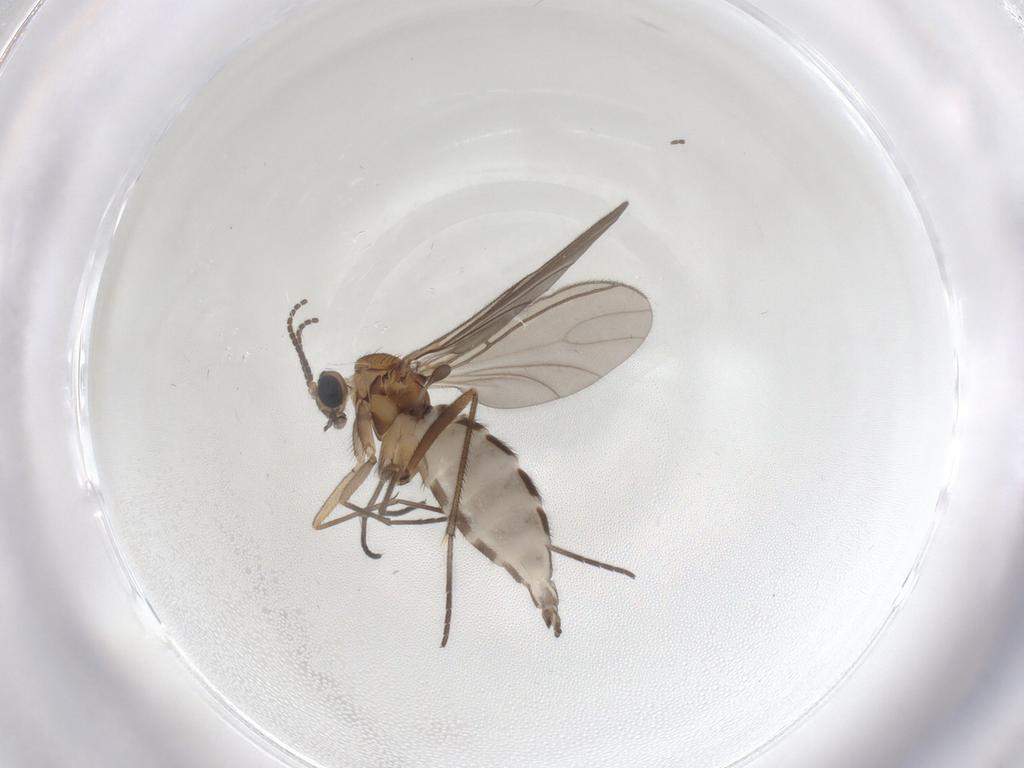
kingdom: Animalia
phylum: Arthropoda
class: Insecta
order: Diptera
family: Sciaridae
